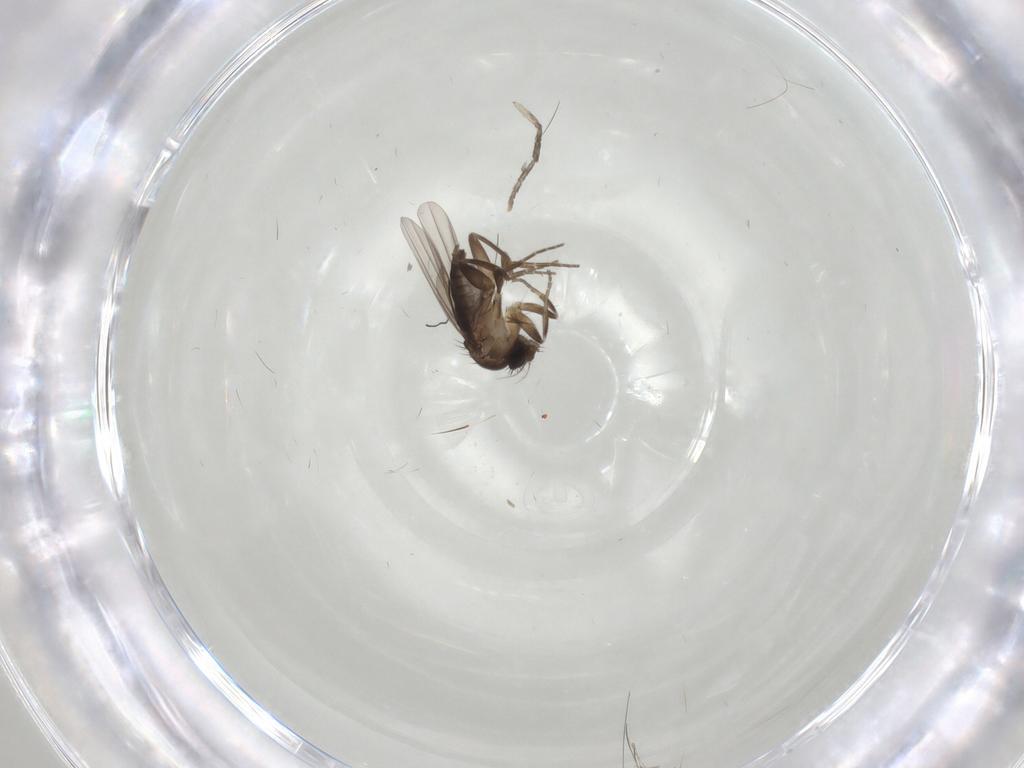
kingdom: Animalia
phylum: Arthropoda
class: Insecta
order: Diptera
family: Phoridae
